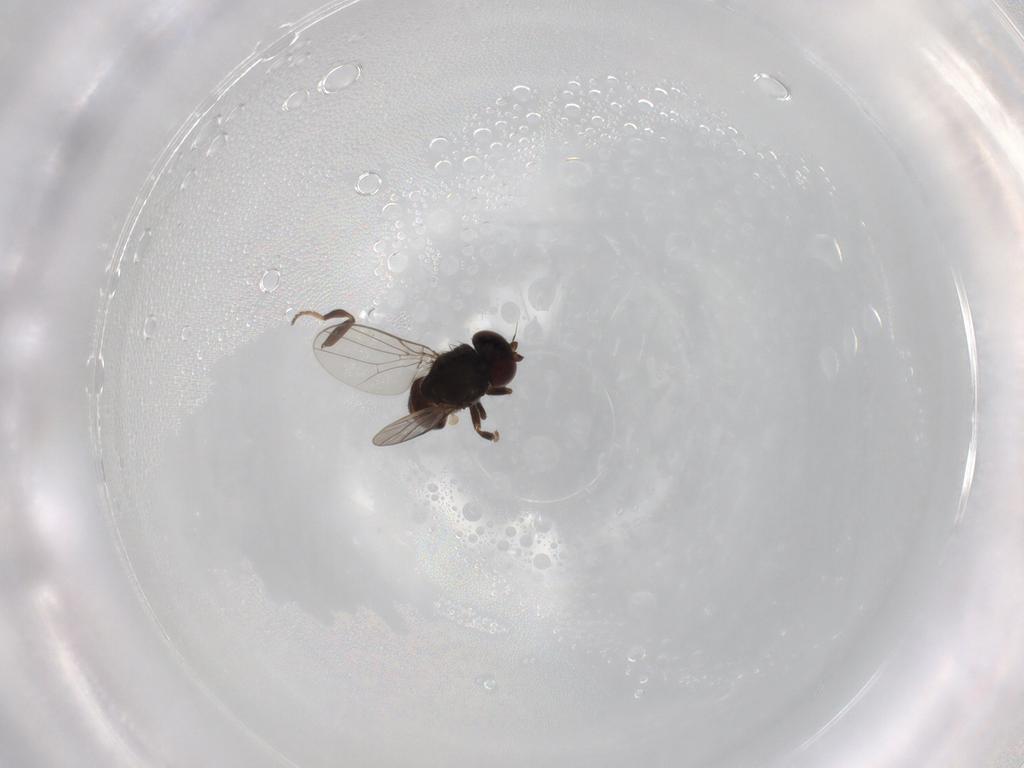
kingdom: Animalia
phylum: Arthropoda
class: Insecta
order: Diptera
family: Chloropidae
